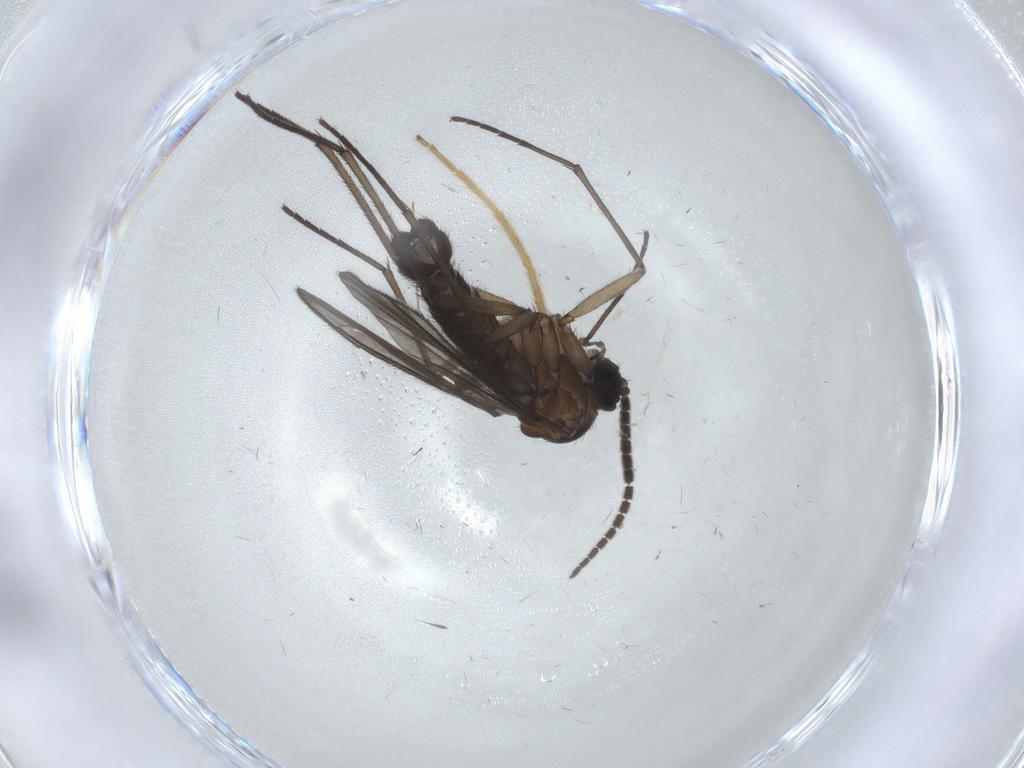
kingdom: Animalia
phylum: Arthropoda
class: Insecta
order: Diptera
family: Sciaridae
